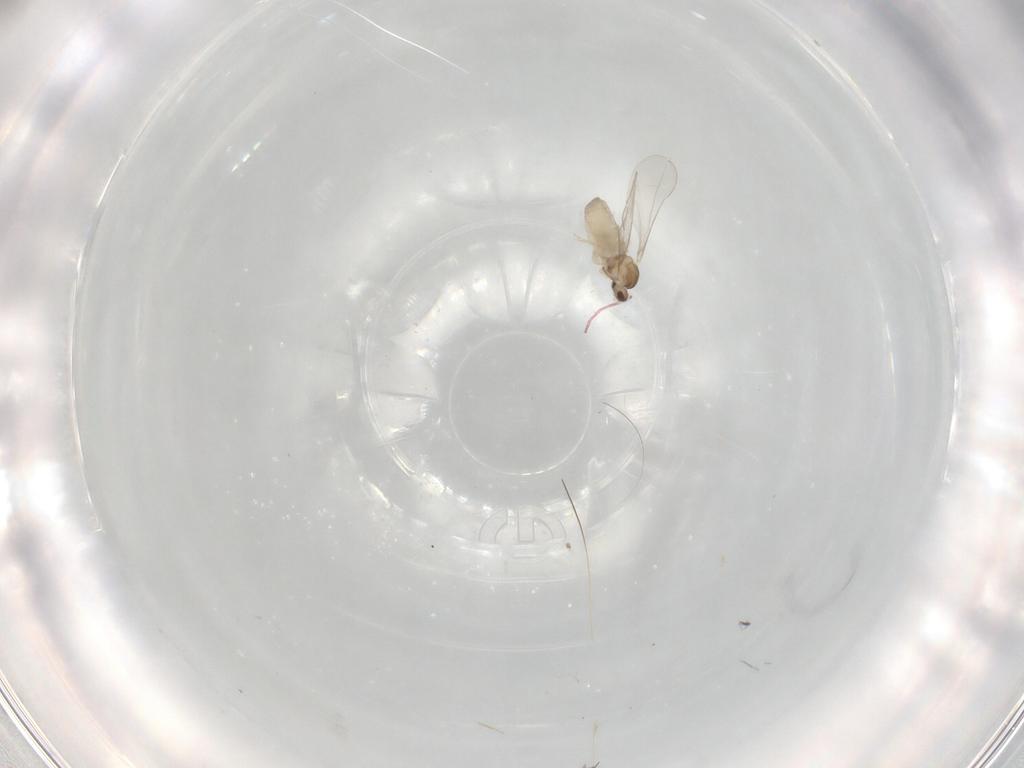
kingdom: Animalia
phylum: Arthropoda
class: Insecta
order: Diptera
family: Cecidomyiidae
